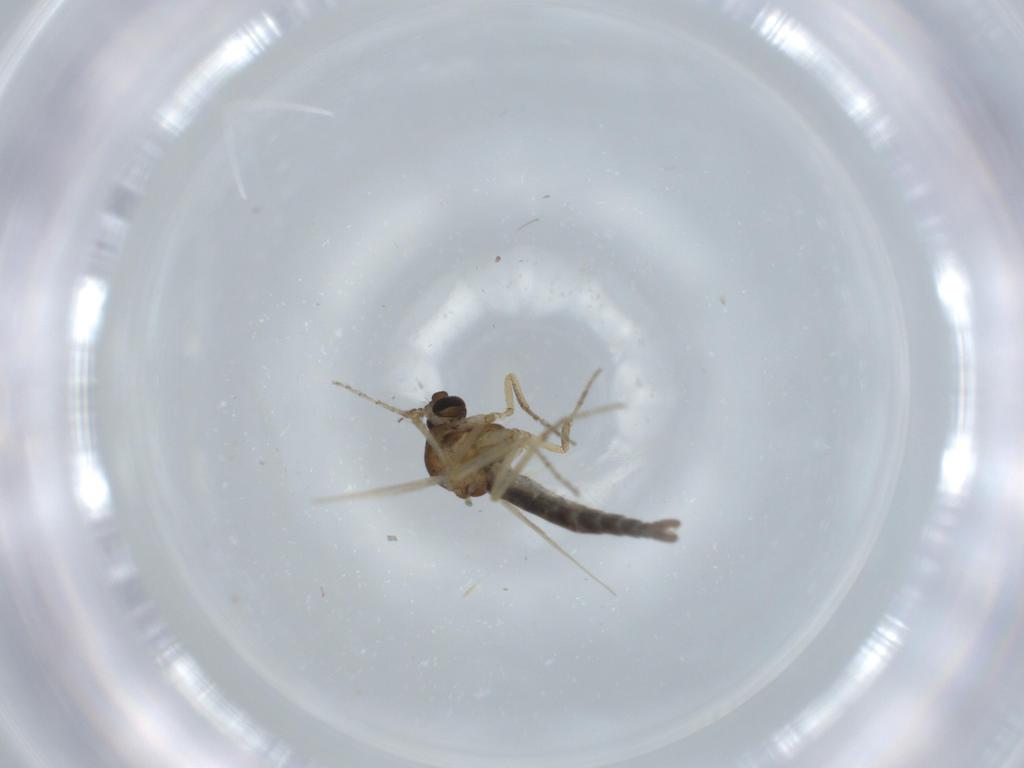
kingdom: Animalia
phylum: Arthropoda
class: Insecta
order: Diptera
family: Ceratopogonidae
